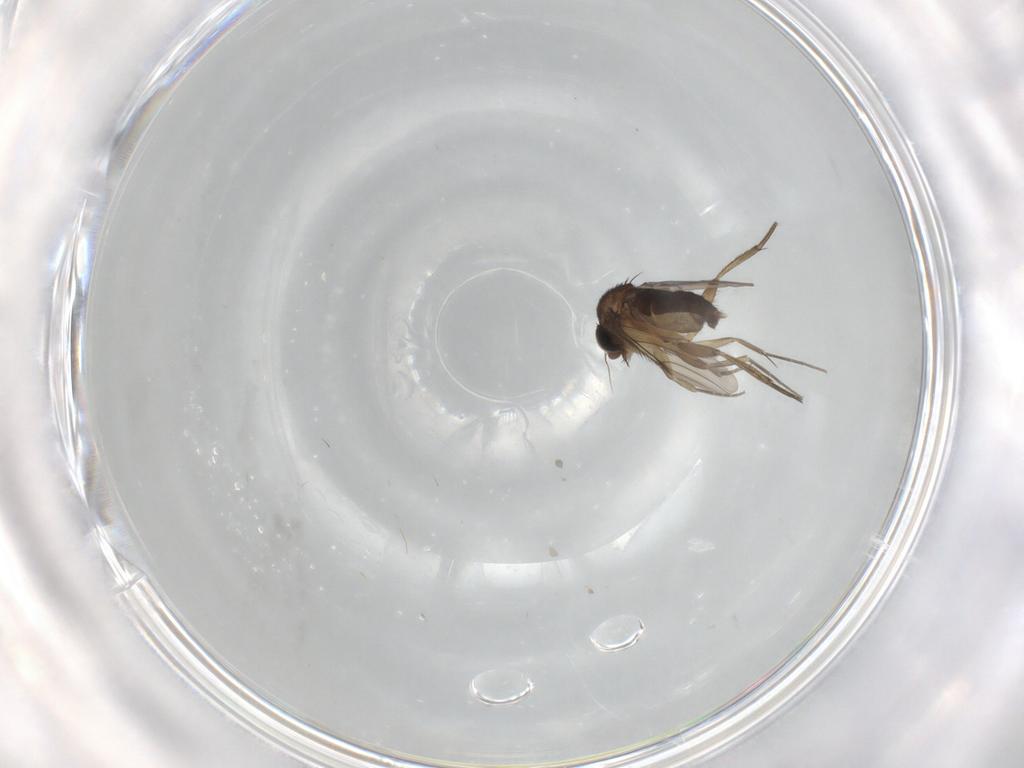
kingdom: Animalia
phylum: Arthropoda
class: Insecta
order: Diptera
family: Phoridae
